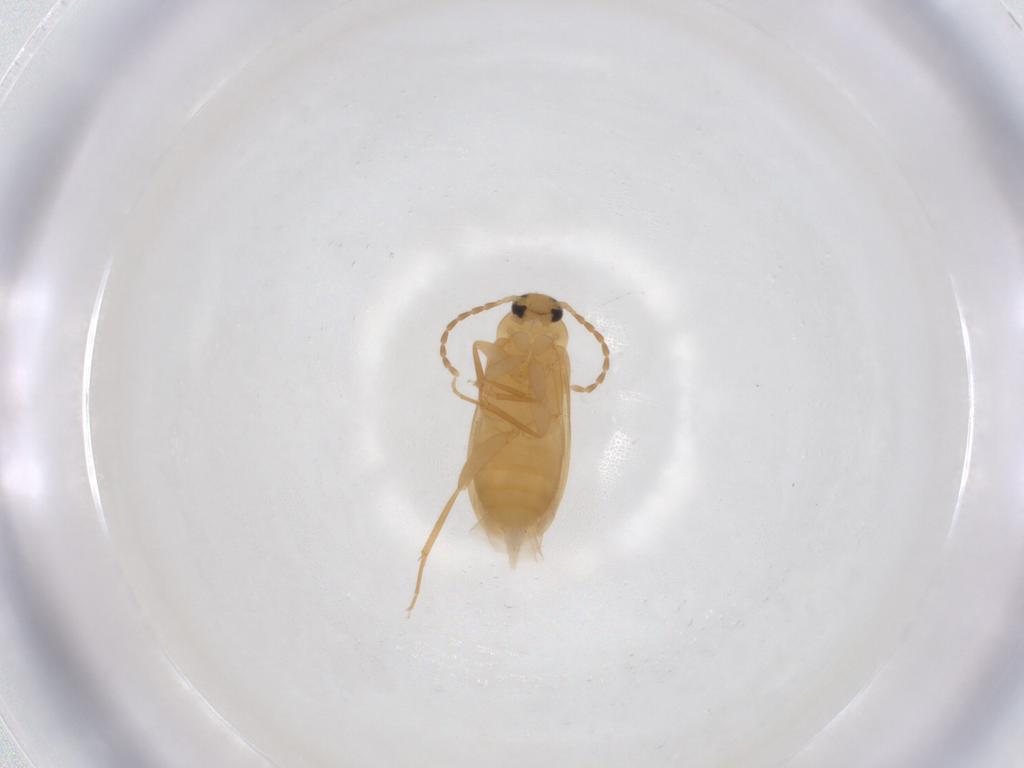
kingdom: Animalia
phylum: Arthropoda
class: Insecta
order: Coleoptera
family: Scraptiidae
